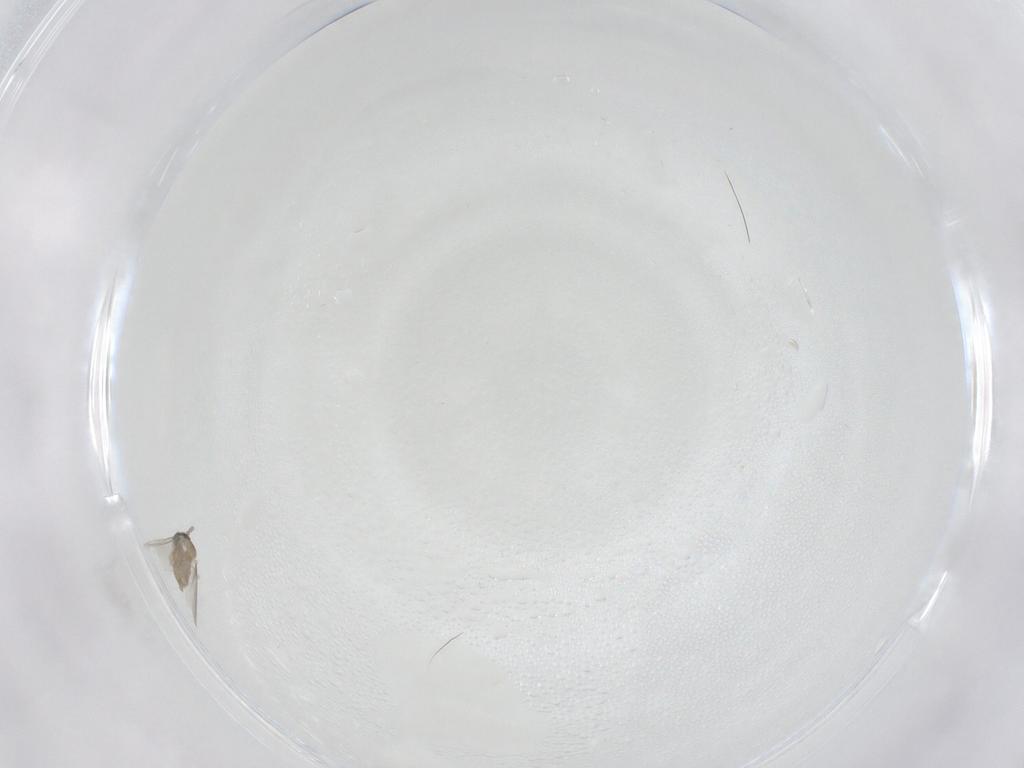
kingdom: Animalia
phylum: Arthropoda
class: Insecta
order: Diptera
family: Cecidomyiidae
